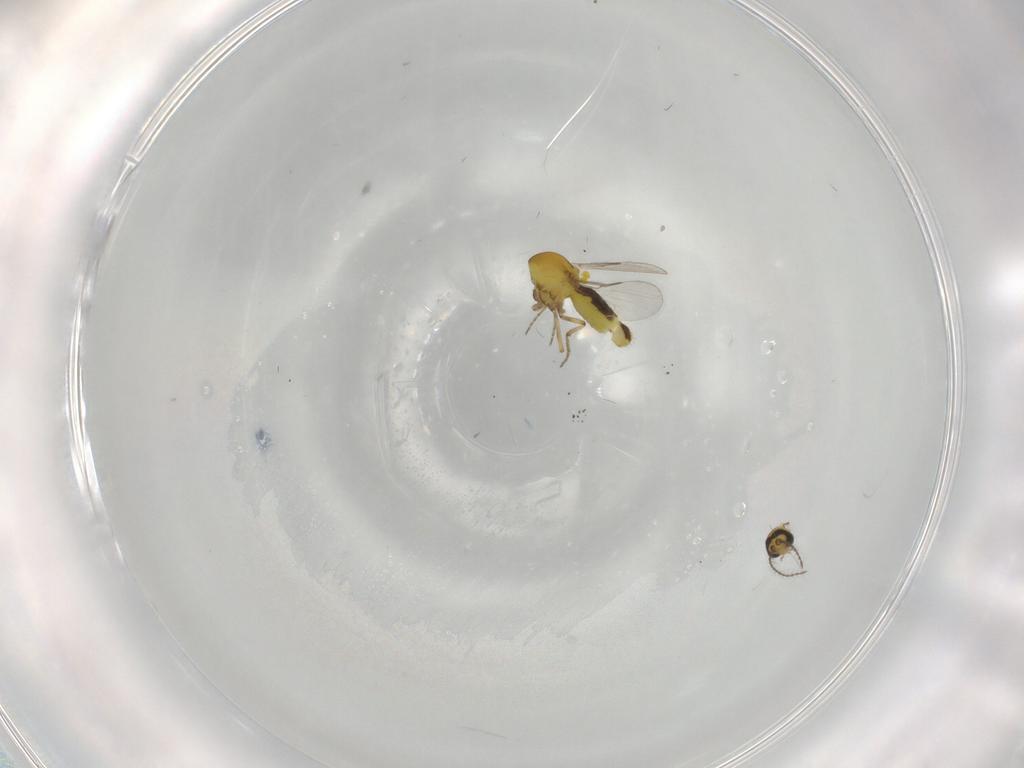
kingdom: Animalia
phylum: Arthropoda
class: Insecta
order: Diptera
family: Ceratopogonidae
